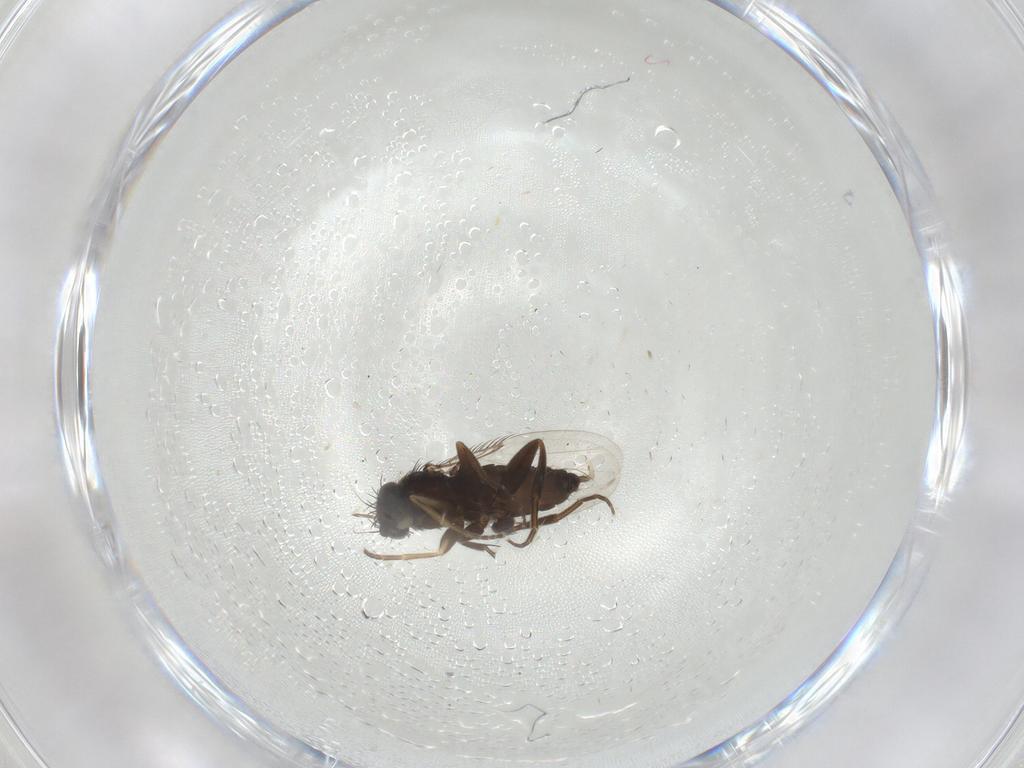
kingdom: Animalia
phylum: Arthropoda
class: Insecta
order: Diptera
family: Phoridae
